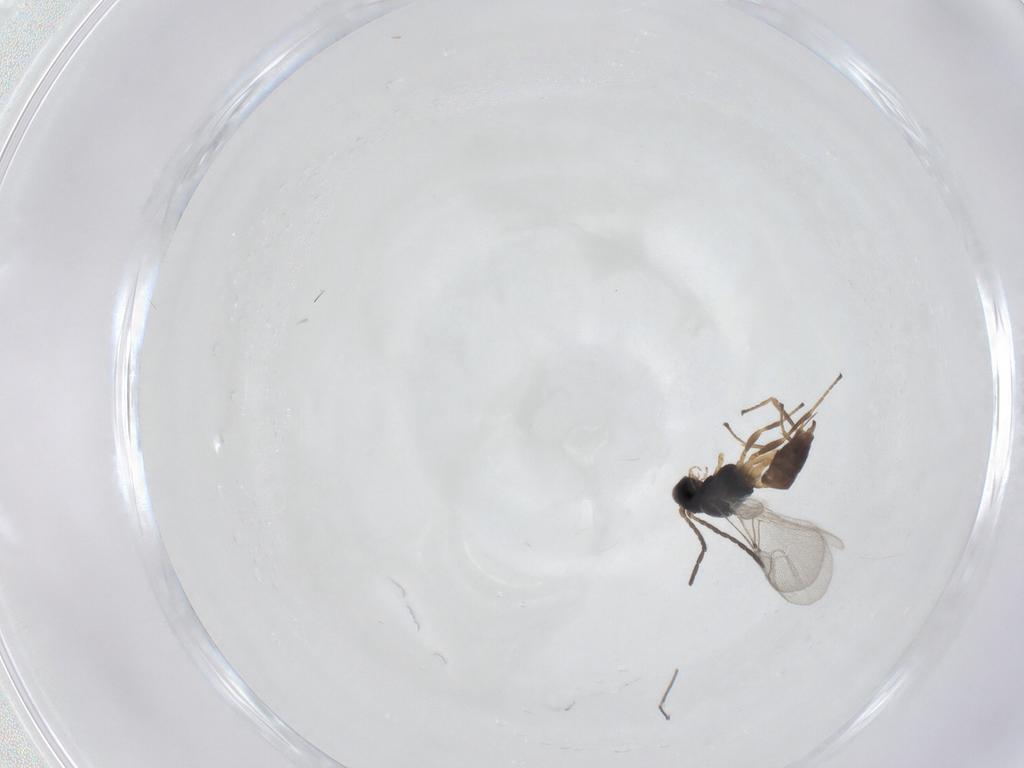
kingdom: Animalia
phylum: Arthropoda
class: Insecta
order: Hymenoptera
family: Braconidae
